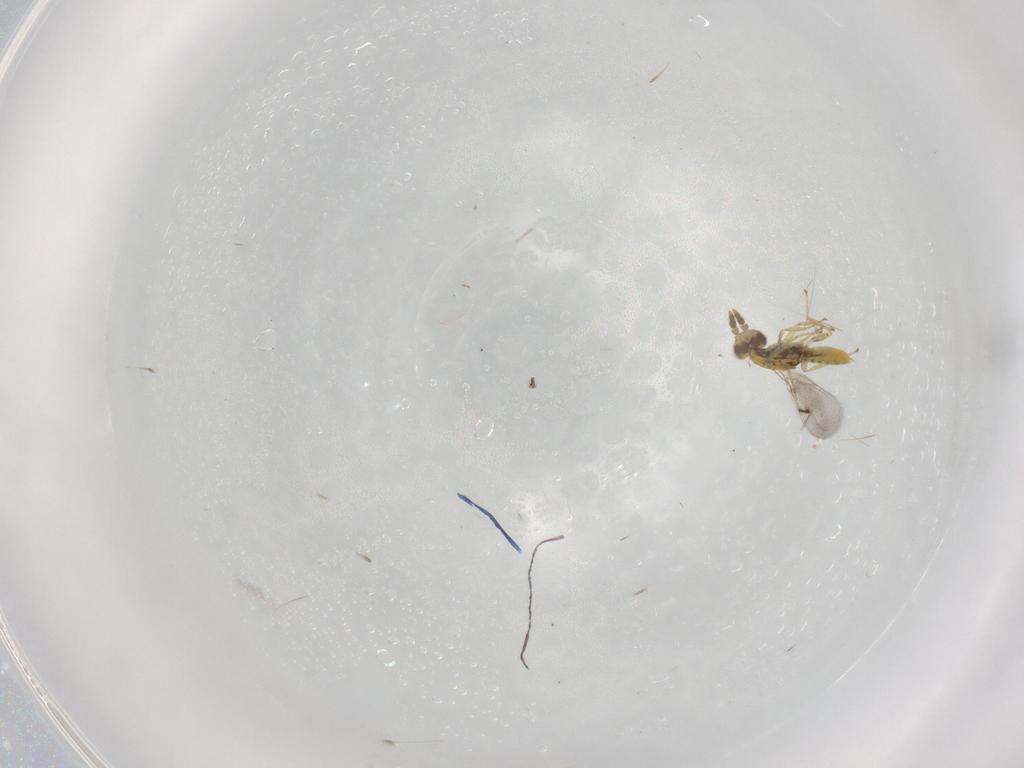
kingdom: Animalia
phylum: Arthropoda
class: Insecta
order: Hymenoptera
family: Eulophidae
